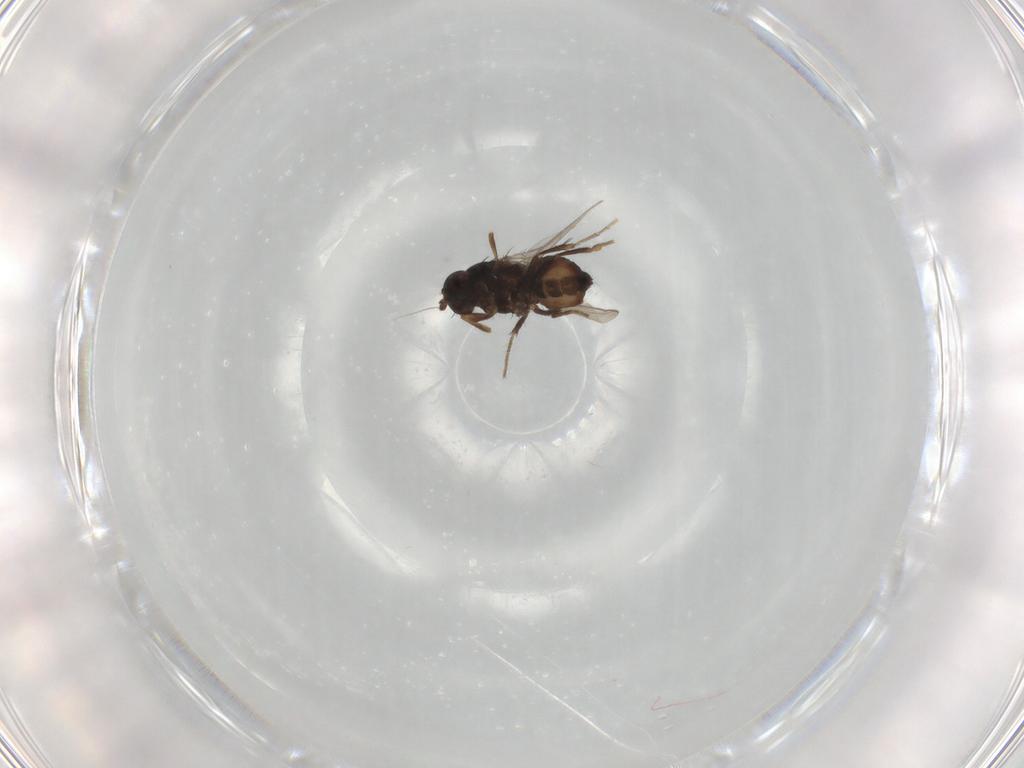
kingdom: Animalia
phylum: Arthropoda
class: Insecta
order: Diptera
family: Sphaeroceridae
